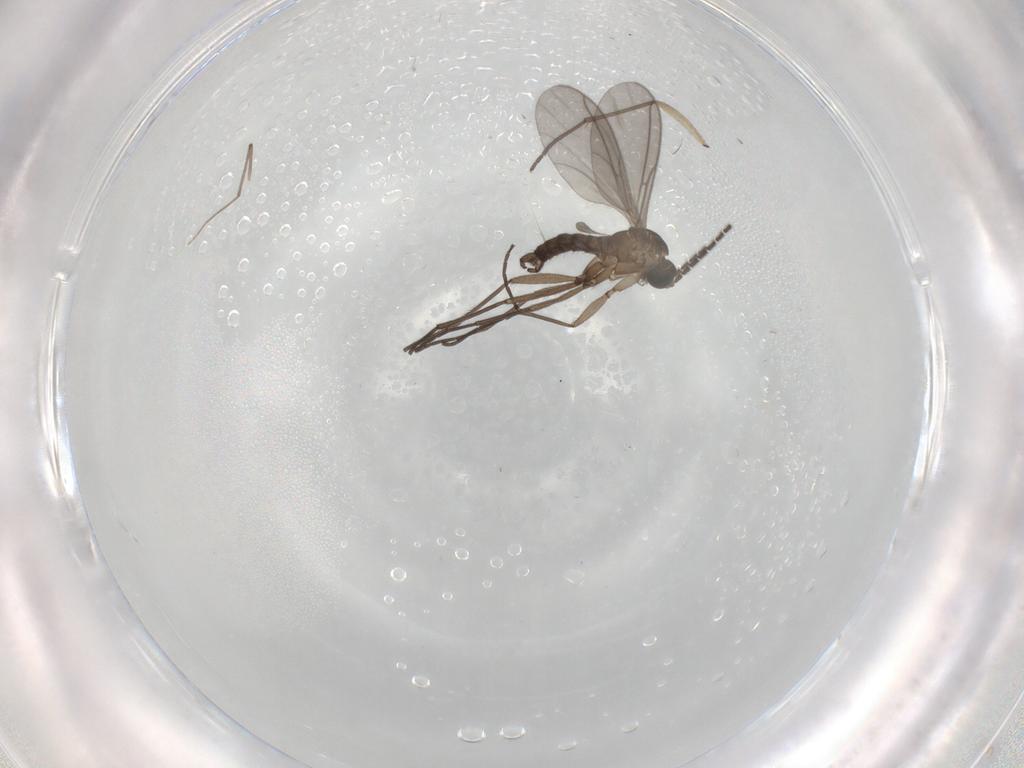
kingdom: Animalia
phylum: Arthropoda
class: Insecta
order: Diptera
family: Sciaridae
